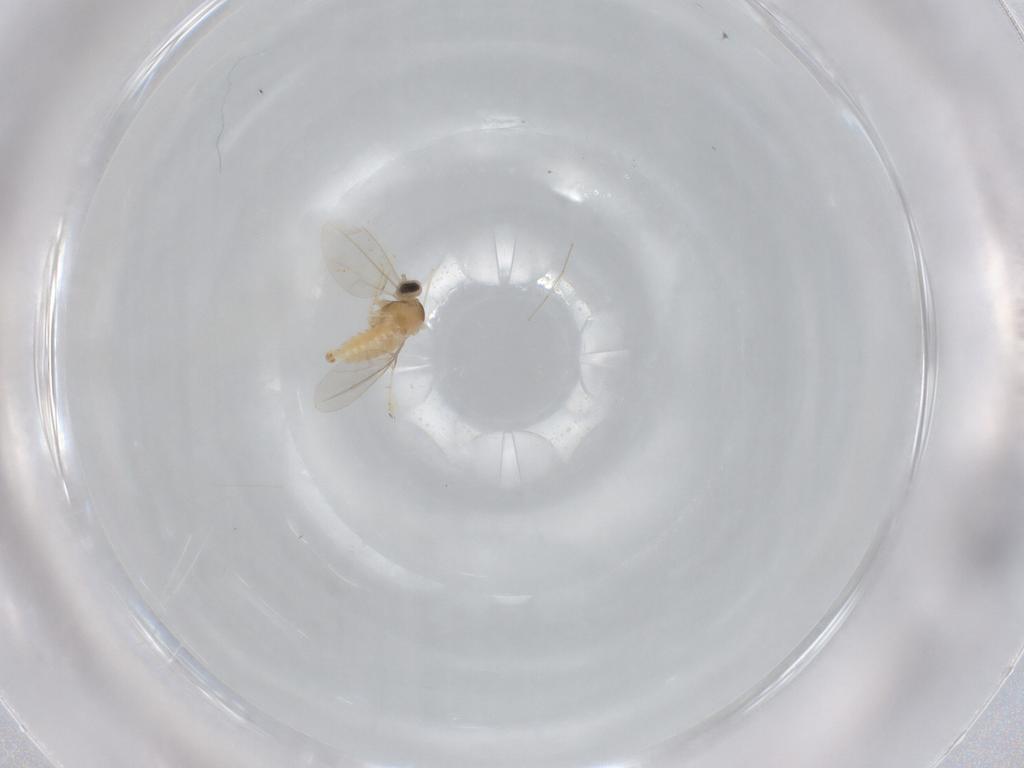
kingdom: Animalia
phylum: Arthropoda
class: Insecta
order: Diptera
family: Cecidomyiidae
